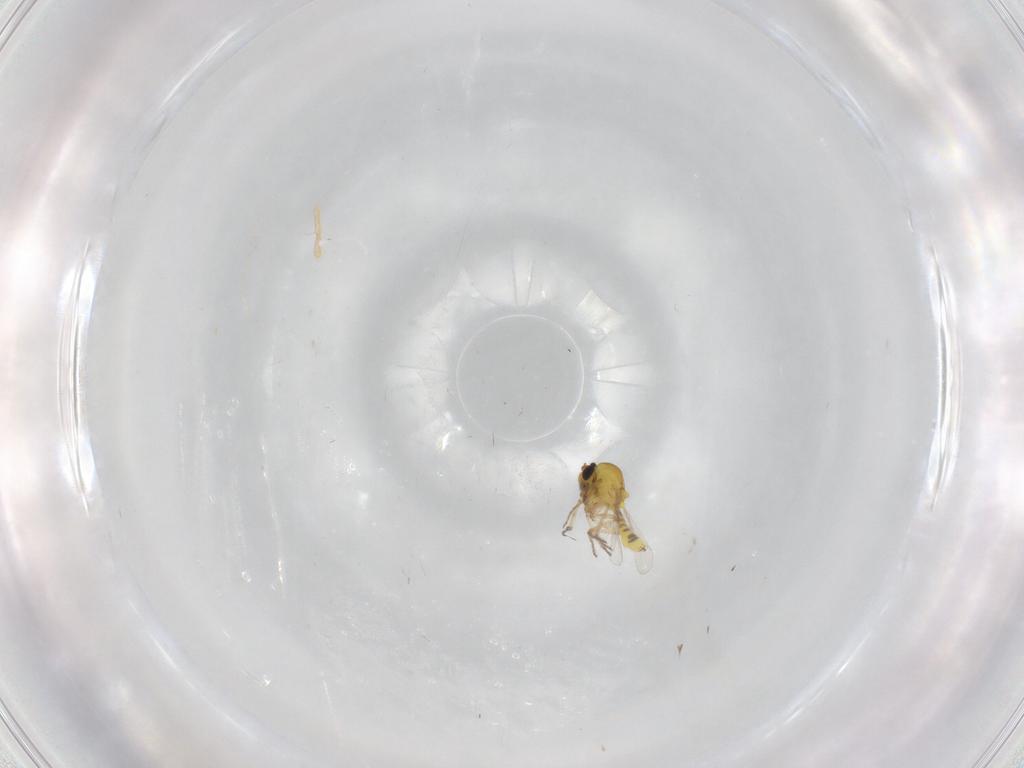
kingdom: Animalia
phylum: Arthropoda
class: Insecta
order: Diptera
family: Ceratopogonidae
